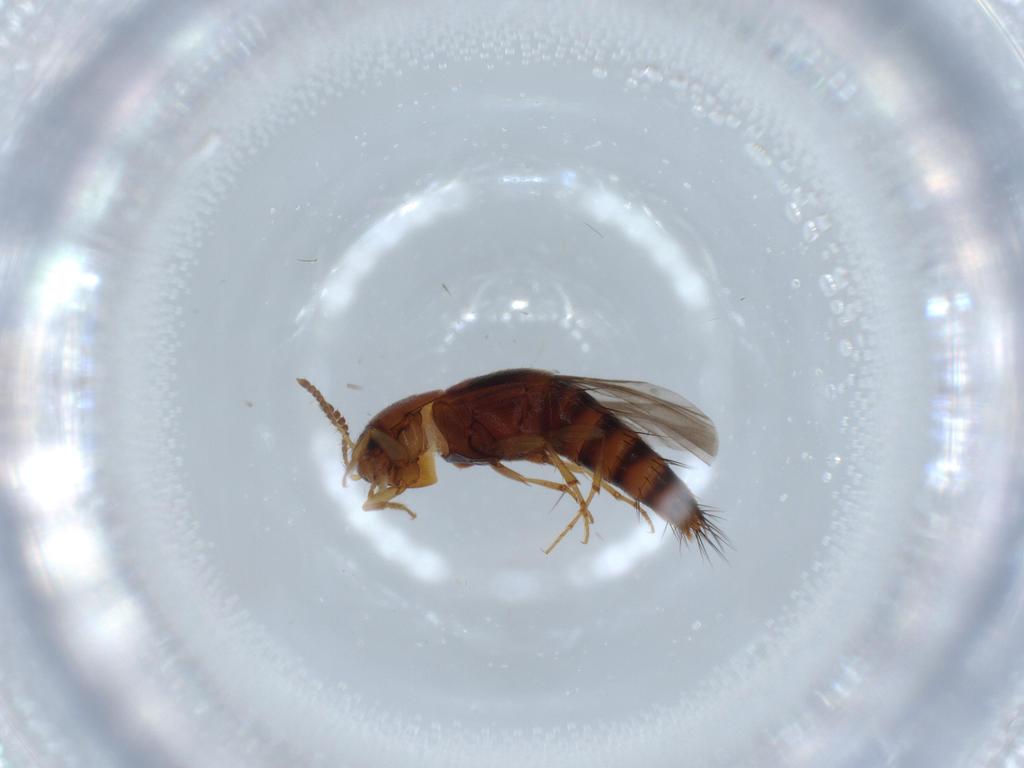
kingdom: Animalia
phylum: Arthropoda
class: Insecta
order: Coleoptera
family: Staphylinidae
